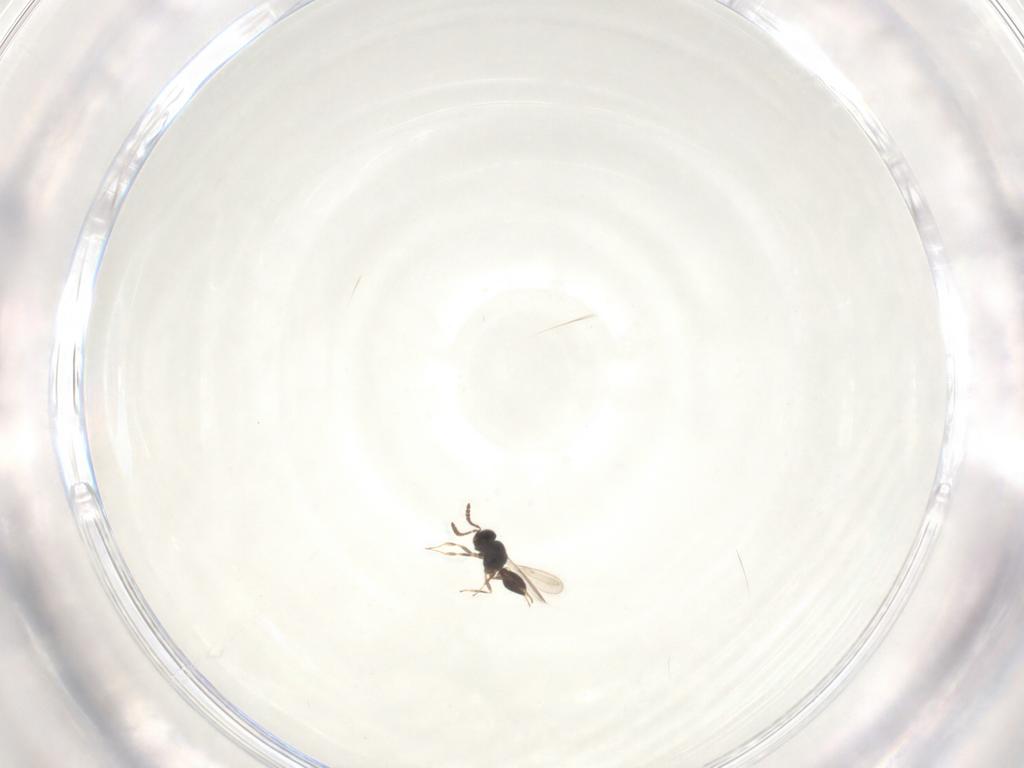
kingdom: Animalia
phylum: Arthropoda
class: Insecta
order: Hymenoptera
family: Scelionidae
